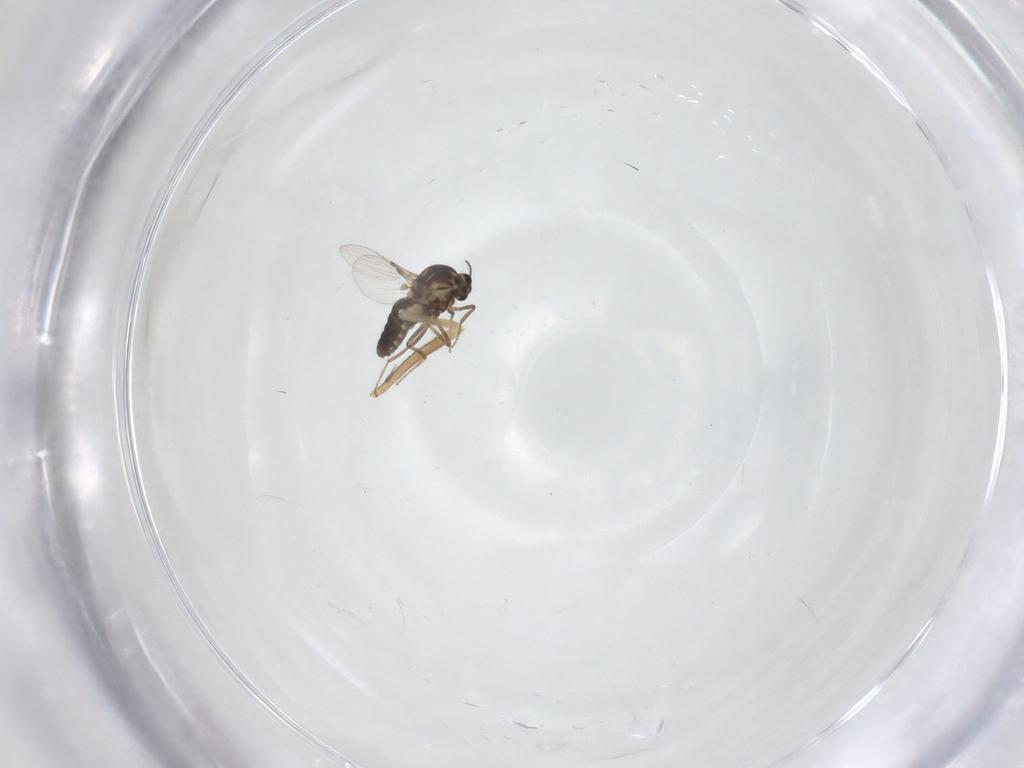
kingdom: Animalia
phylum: Arthropoda
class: Insecta
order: Diptera
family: Ceratopogonidae
